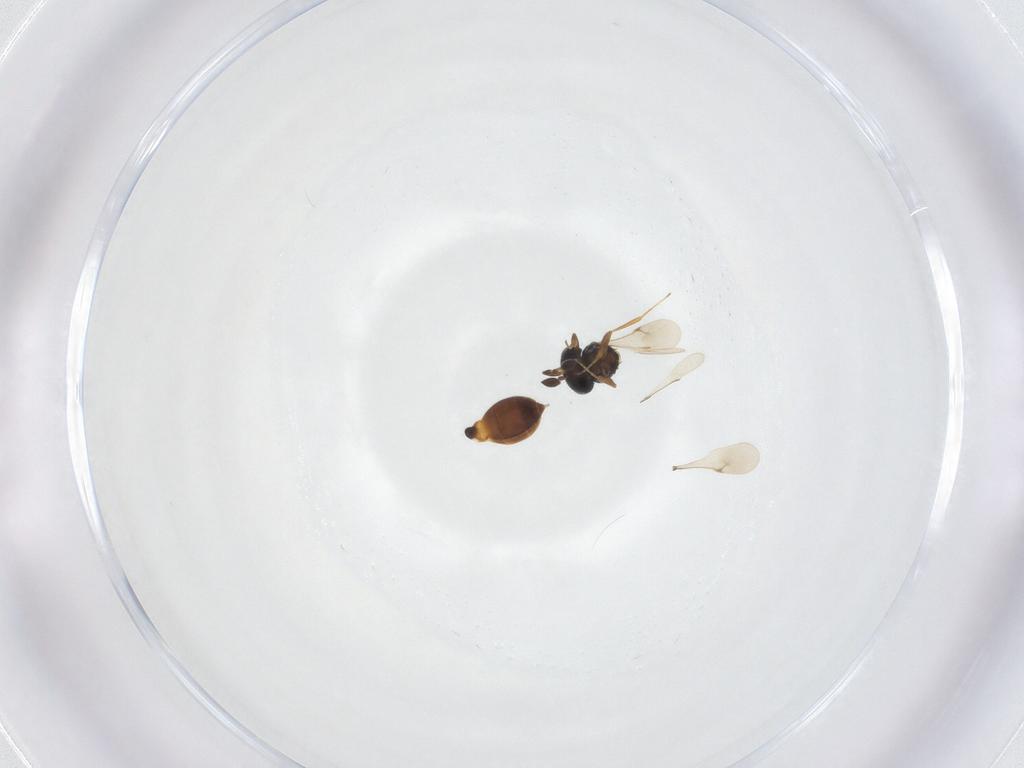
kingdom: Animalia
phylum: Arthropoda
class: Insecta
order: Hymenoptera
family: Scelionidae
